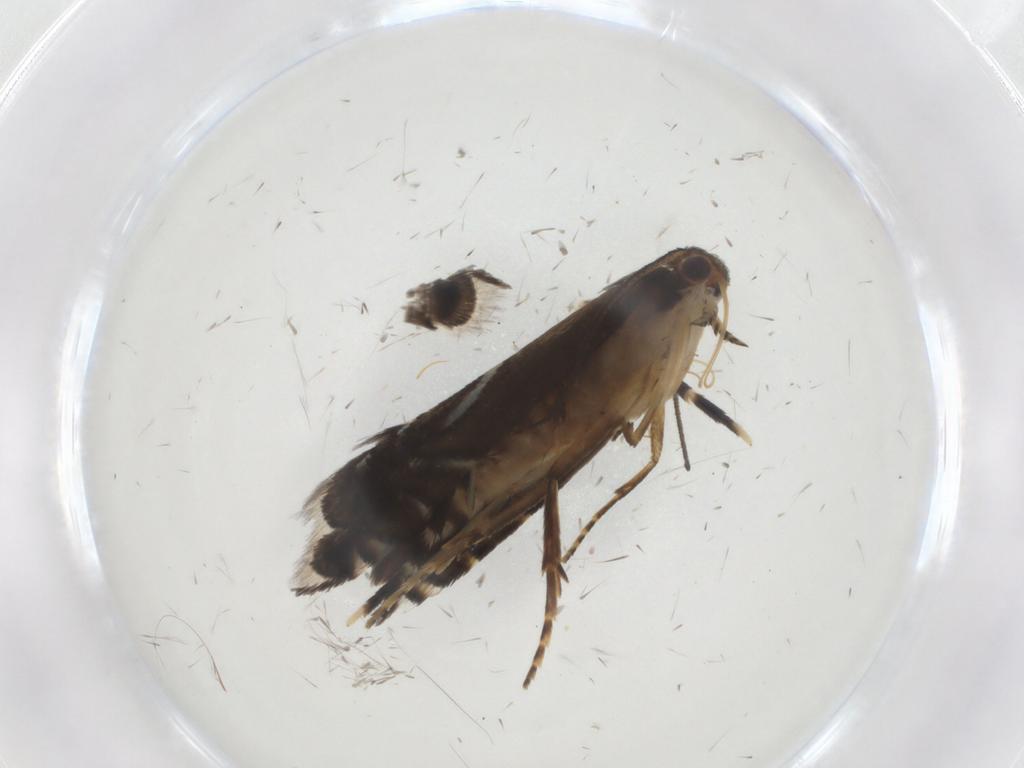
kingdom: Animalia
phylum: Arthropoda
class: Insecta
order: Lepidoptera
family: Glyphipterigidae
